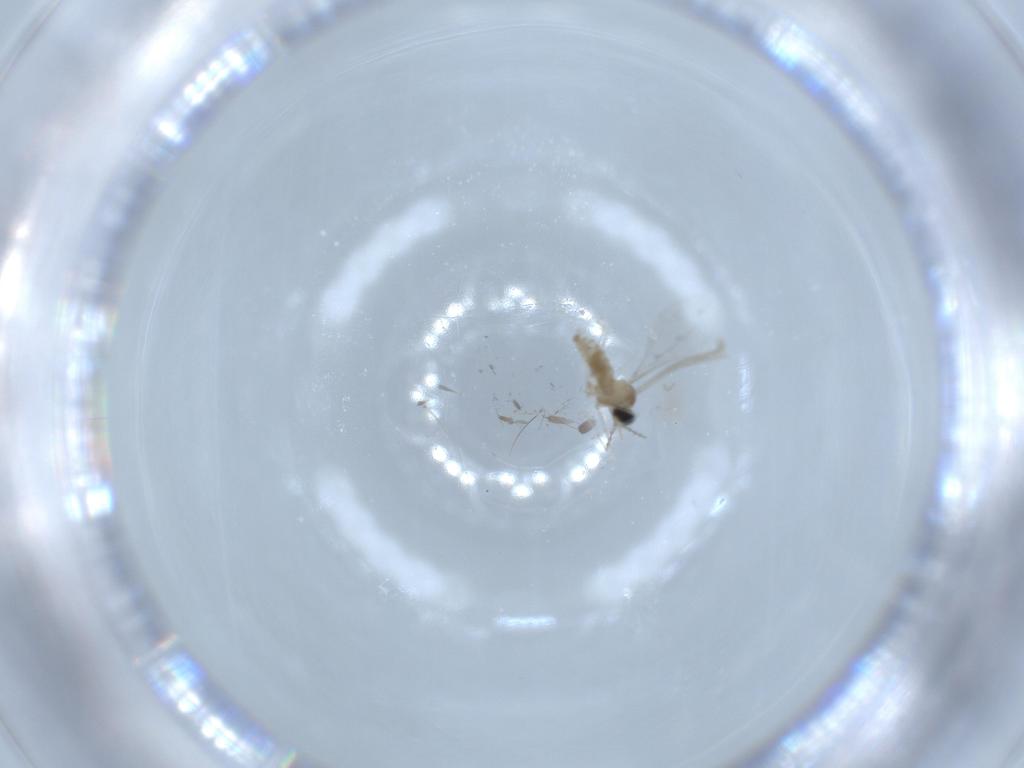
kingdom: Animalia
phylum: Arthropoda
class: Insecta
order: Diptera
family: Cecidomyiidae
